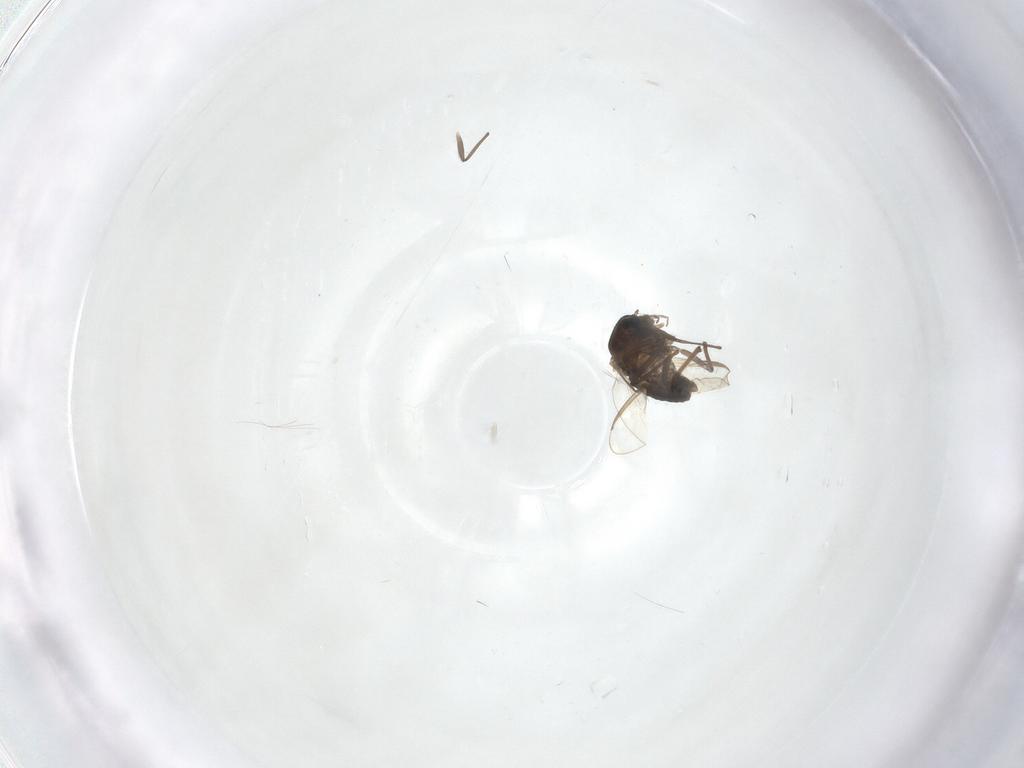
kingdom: Animalia
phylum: Arthropoda
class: Insecta
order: Diptera
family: Chironomidae
